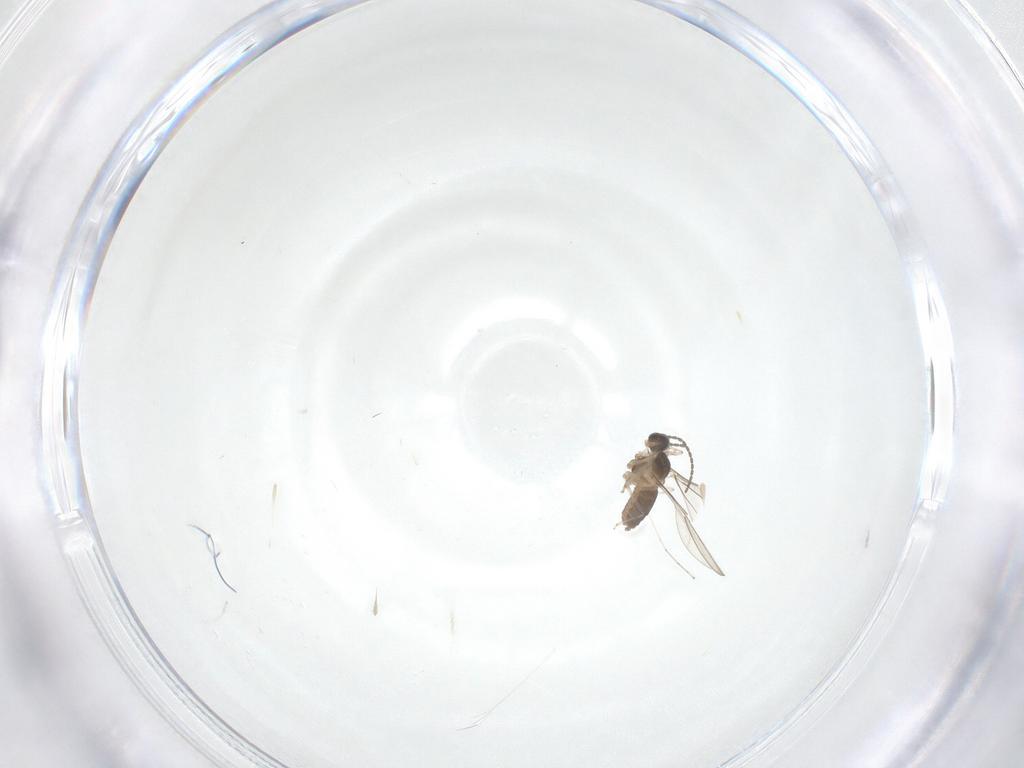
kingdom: Animalia
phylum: Arthropoda
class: Insecta
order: Diptera
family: Cecidomyiidae
